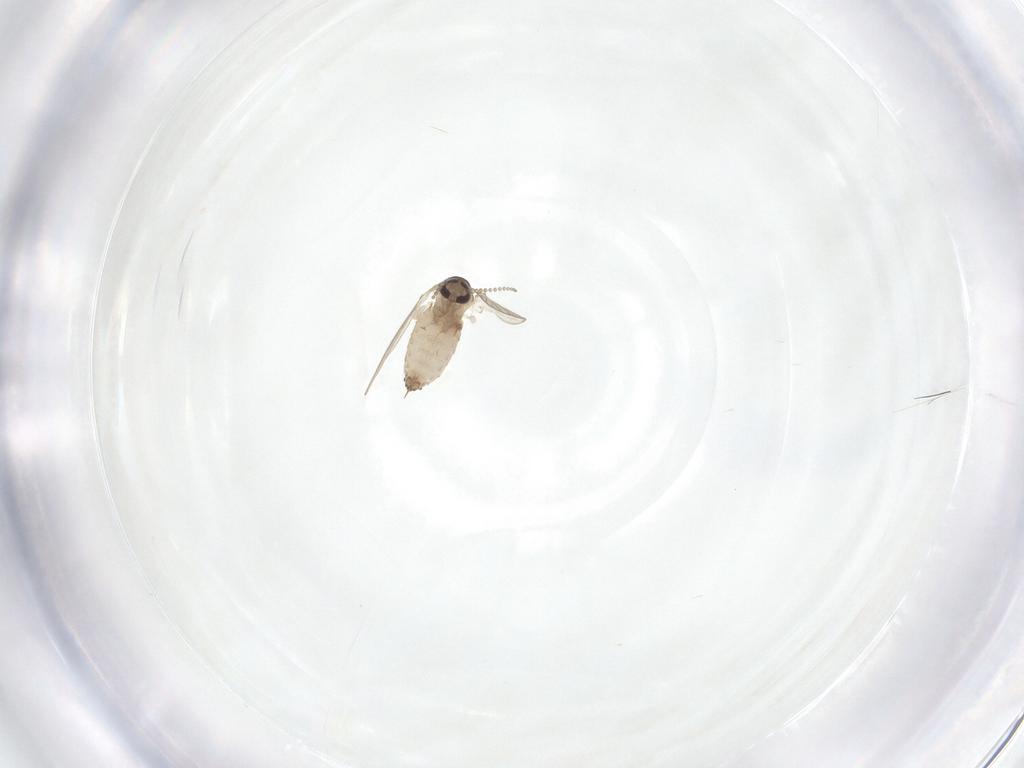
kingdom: Animalia
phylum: Arthropoda
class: Insecta
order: Diptera
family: Psychodidae
